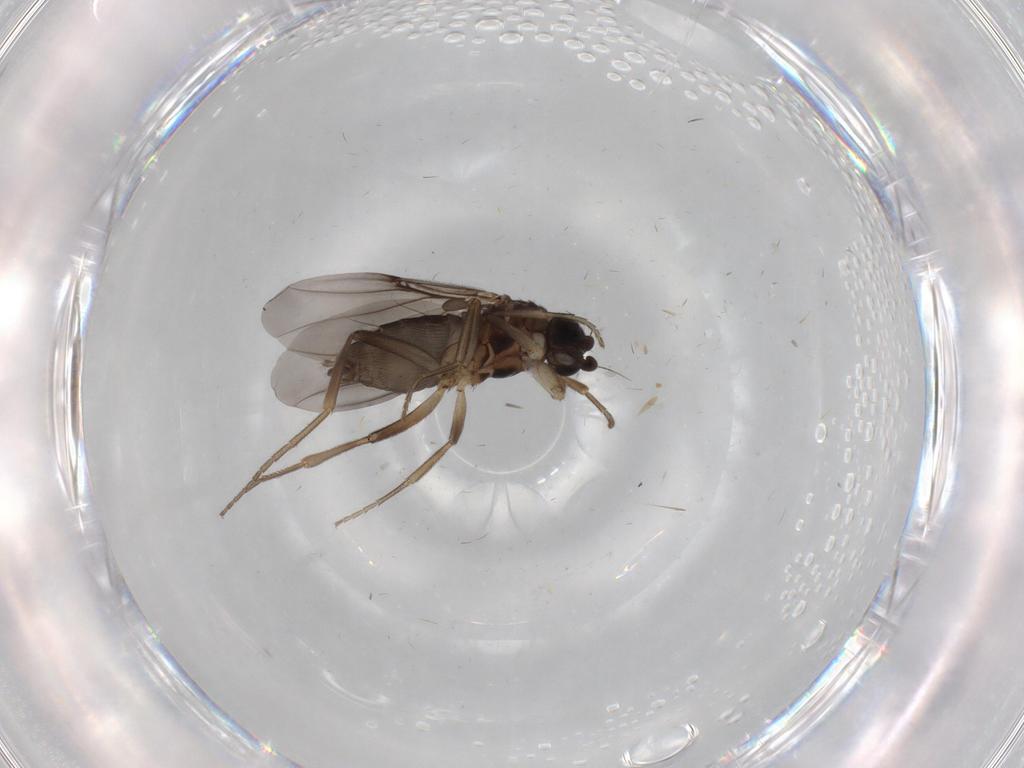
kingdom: Animalia
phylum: Arthropoda
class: Insecta
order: Diptera
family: Phoridae
